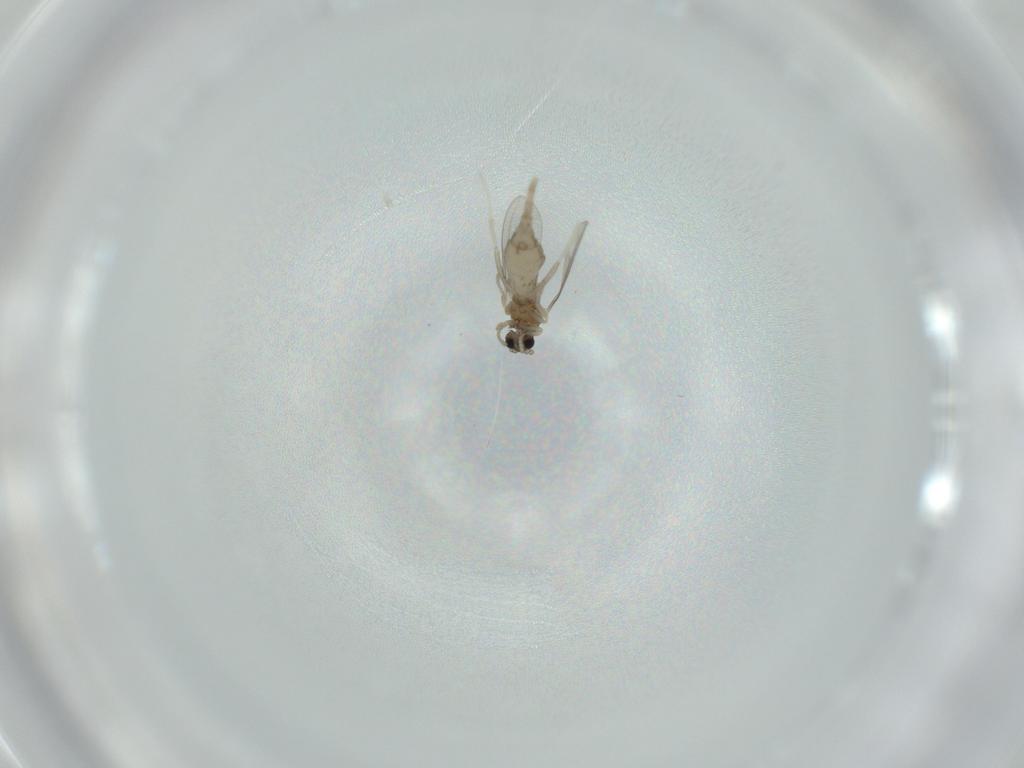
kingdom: Animalia
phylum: Arthropoda
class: Insecta
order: Diptera
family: Cecidomyiidae
